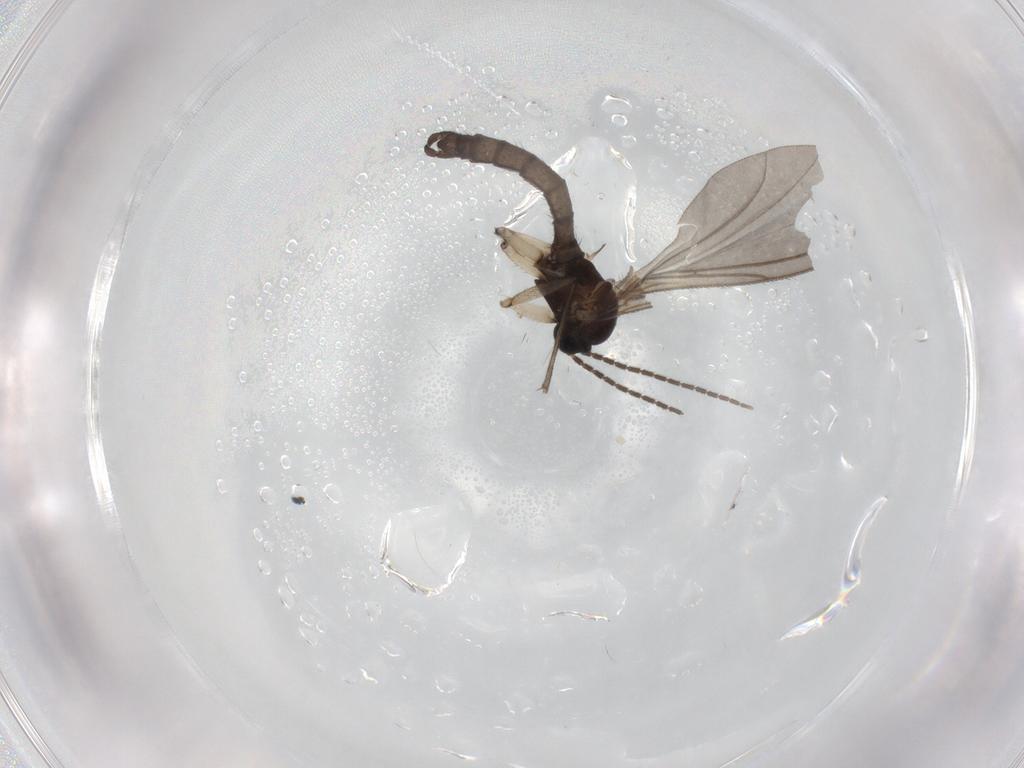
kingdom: Animalia
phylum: Arthropoda
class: Insecta
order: Diptera
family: Sciaridae
